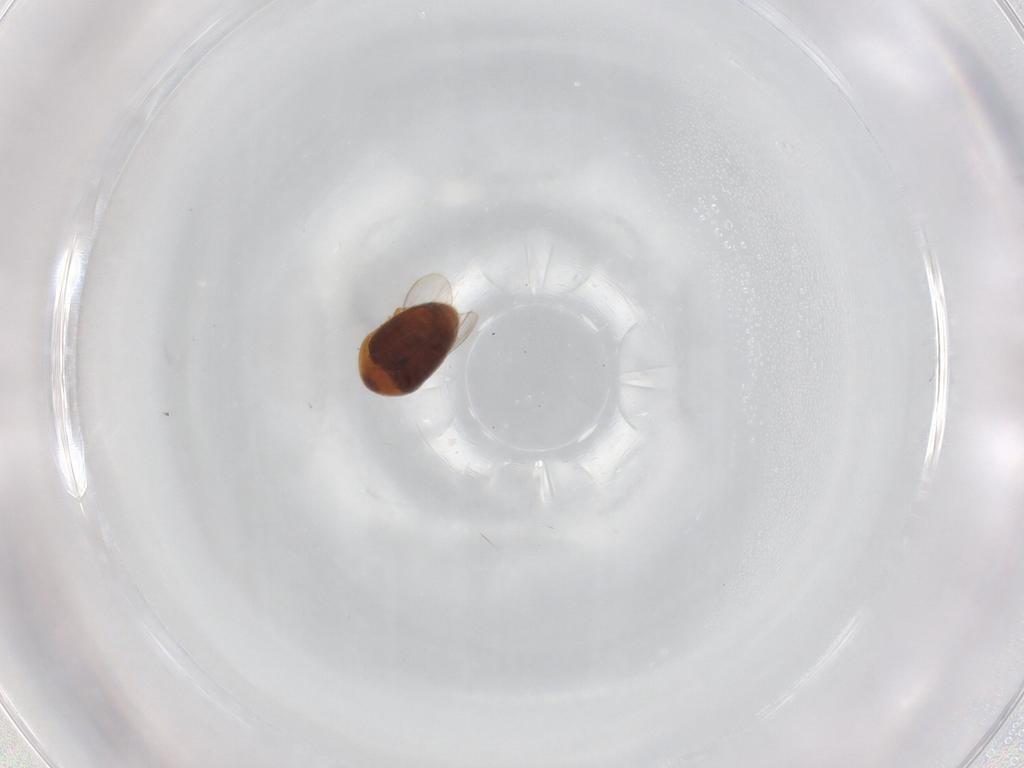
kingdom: Animalia
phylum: Arthropoda
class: Insecta
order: Coleoptera
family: Corylophidae
